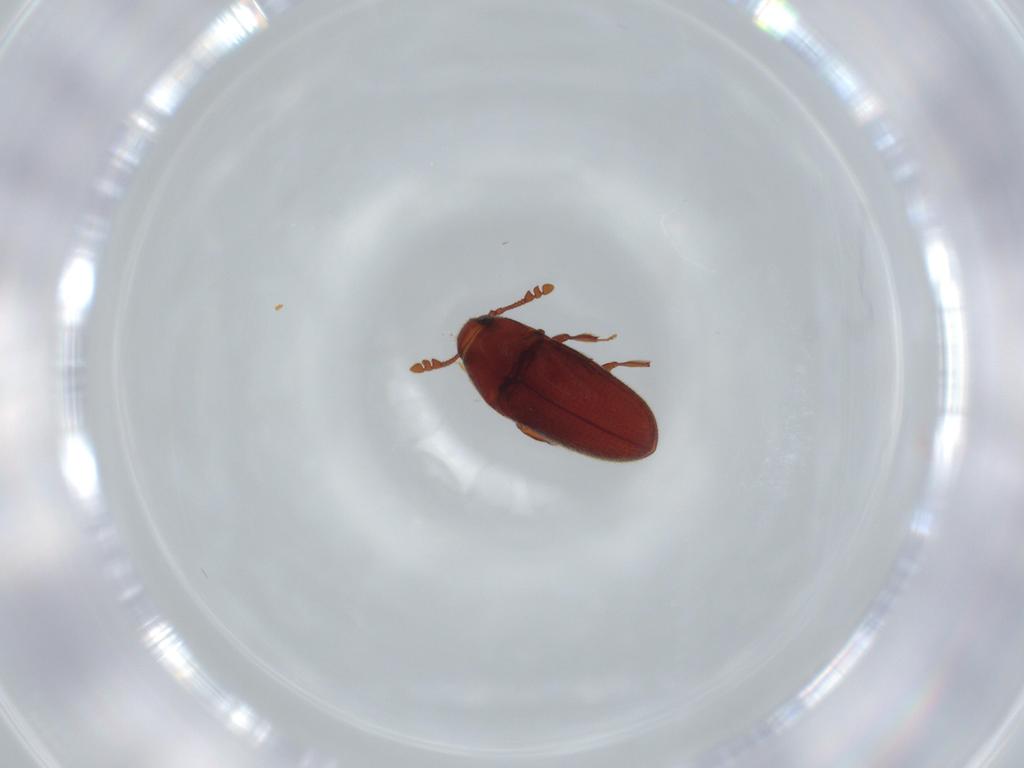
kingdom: Animalia
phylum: Arthropoda
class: Insecta
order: Coleoptera
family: Throscidae
